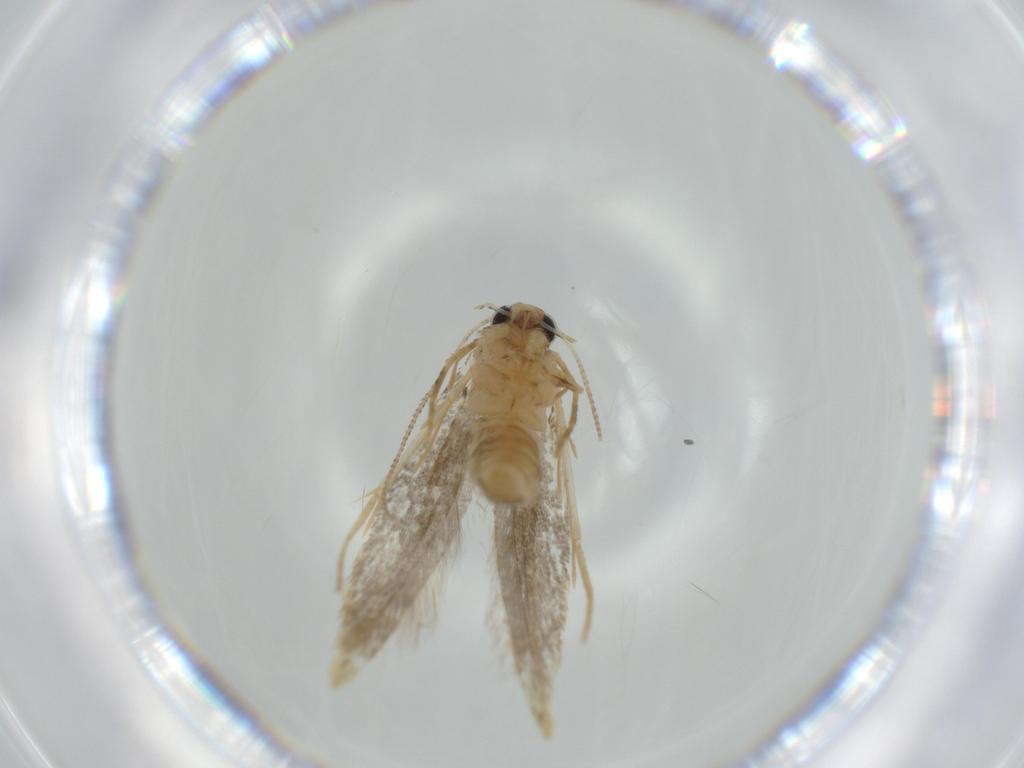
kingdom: Animalia
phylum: Arthropoda
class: Insecta
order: Lepidoptera
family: Tineidae
